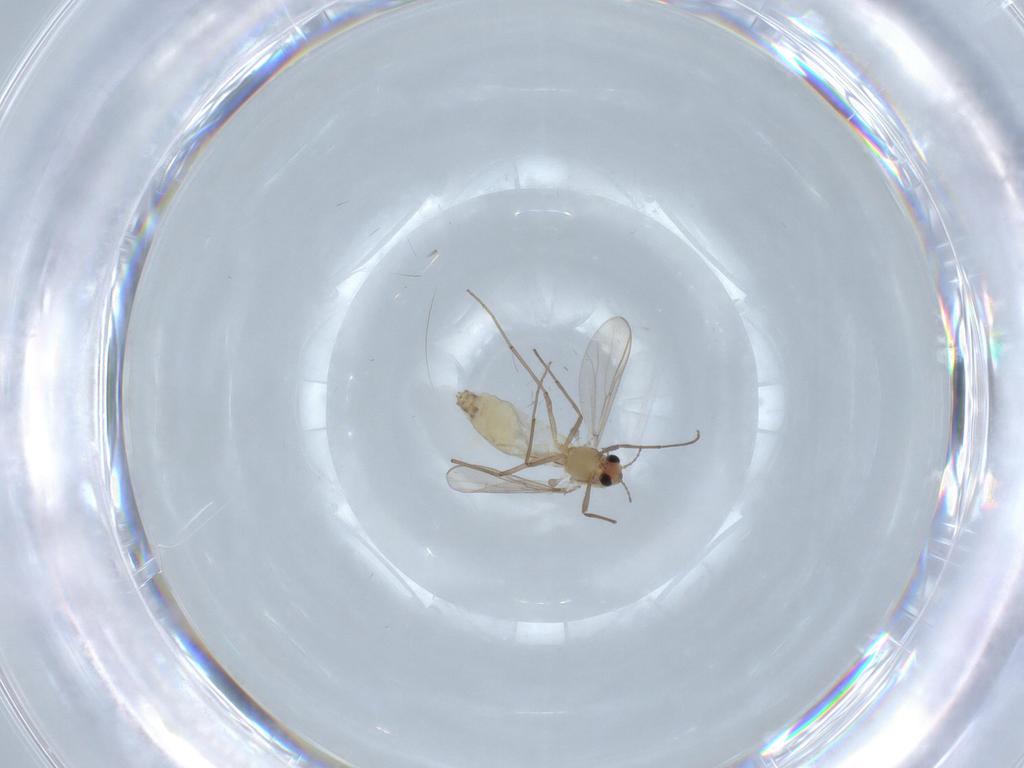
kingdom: Animalia
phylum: Arthropoda
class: Insecta
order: Diptera
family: Chironomidae
